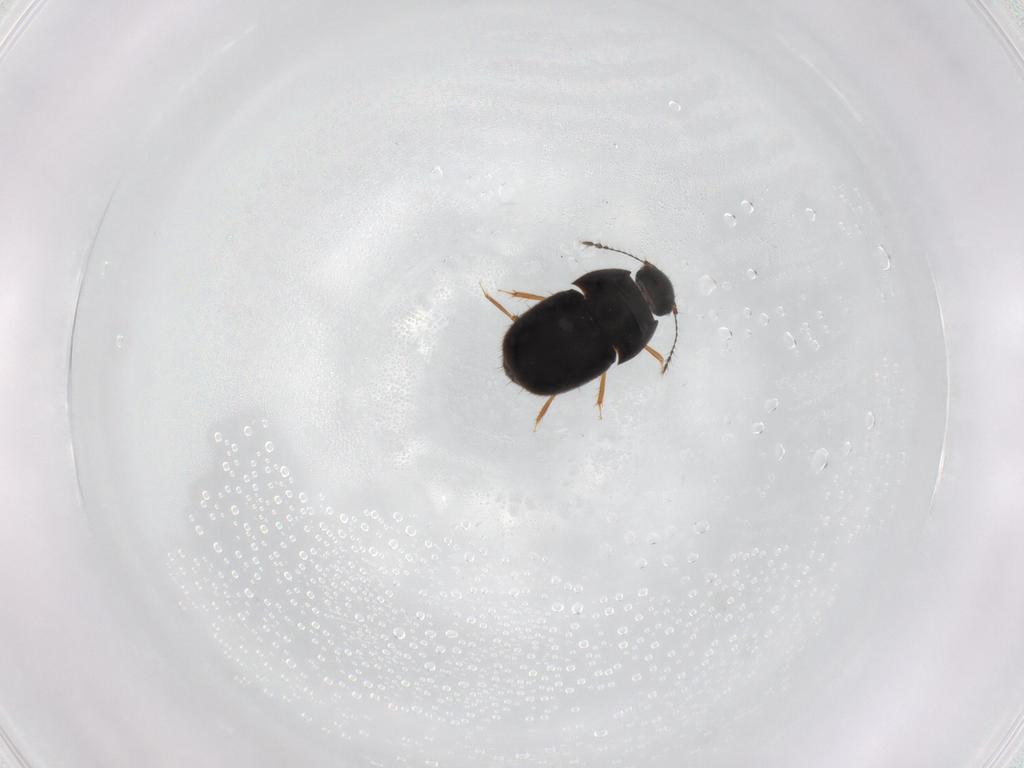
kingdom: Animalia
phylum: Arthropoda
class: Insecta
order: Coleoptera
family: Ptiliidae
